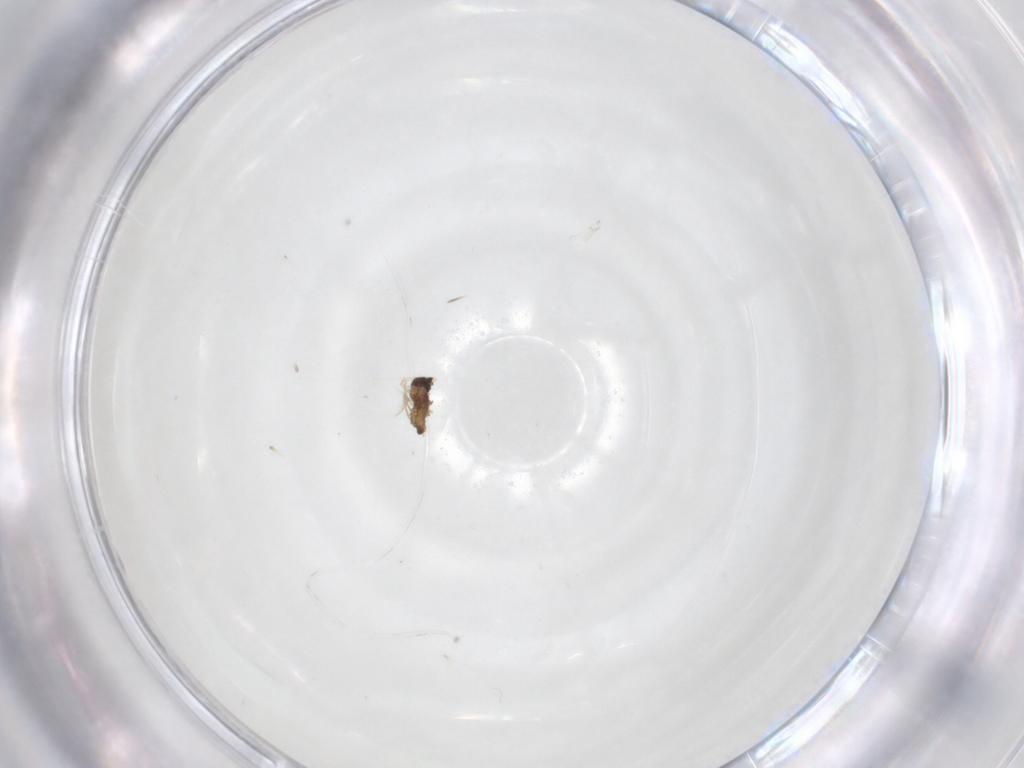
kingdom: Animalia
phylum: Arthropoda
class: Insecta
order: Diptera
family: Cecidomyiidae
